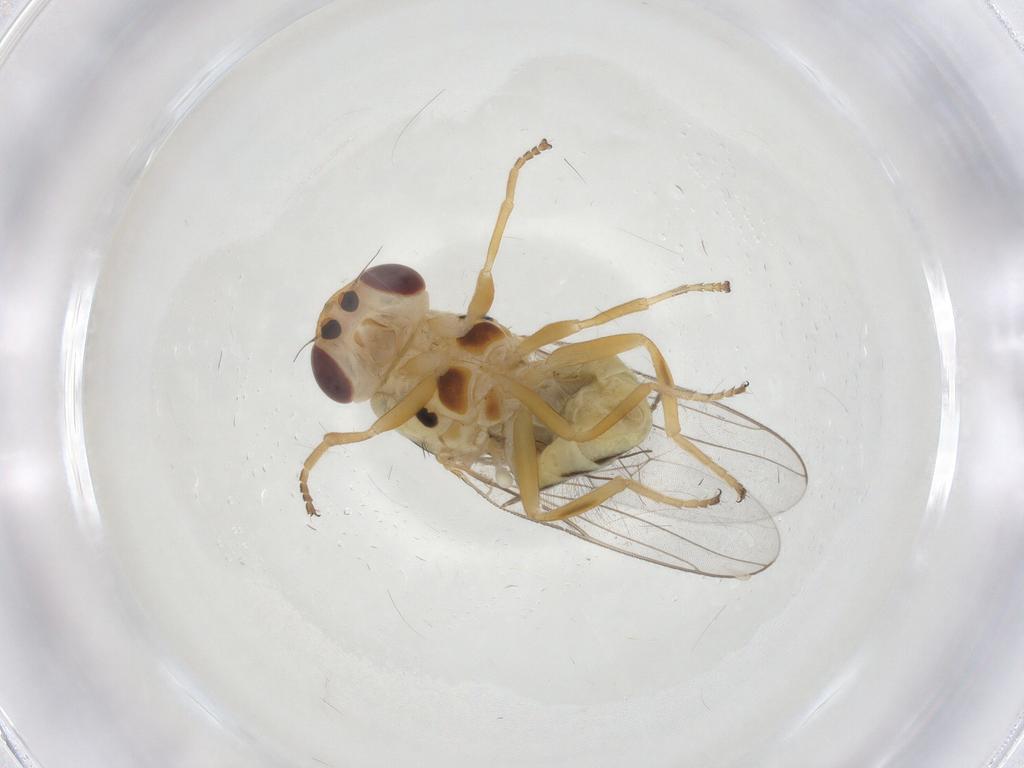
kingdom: Animalia
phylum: Arthropoda
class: Insecta
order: Diptera
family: Chloropidae
